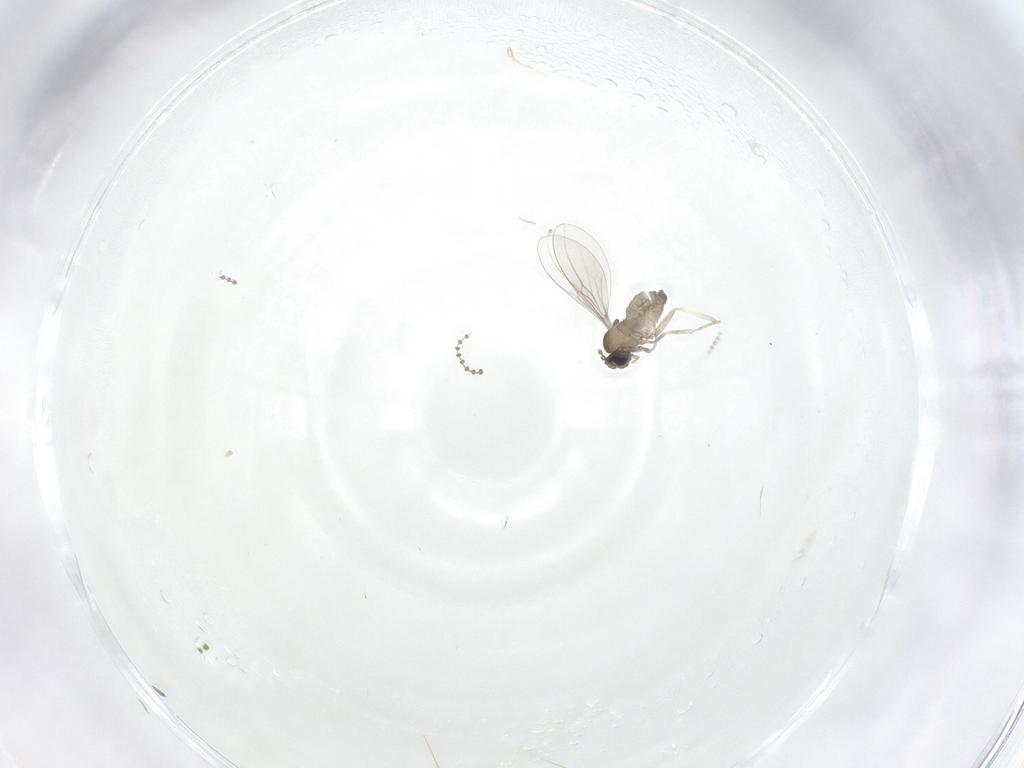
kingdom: Animalia
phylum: Arthropoda
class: Insecta
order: Diptera
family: Cecidomyiidae
